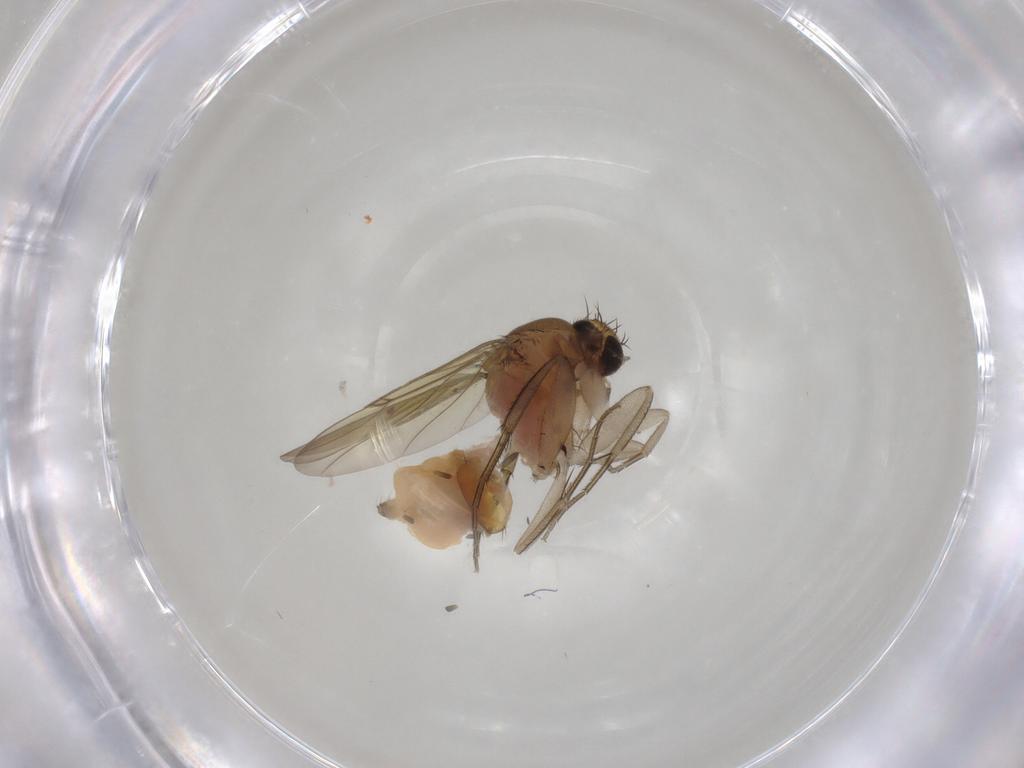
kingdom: Animalia
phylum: Arthropoda
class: Insecta
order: Diptera
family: Phoridae
